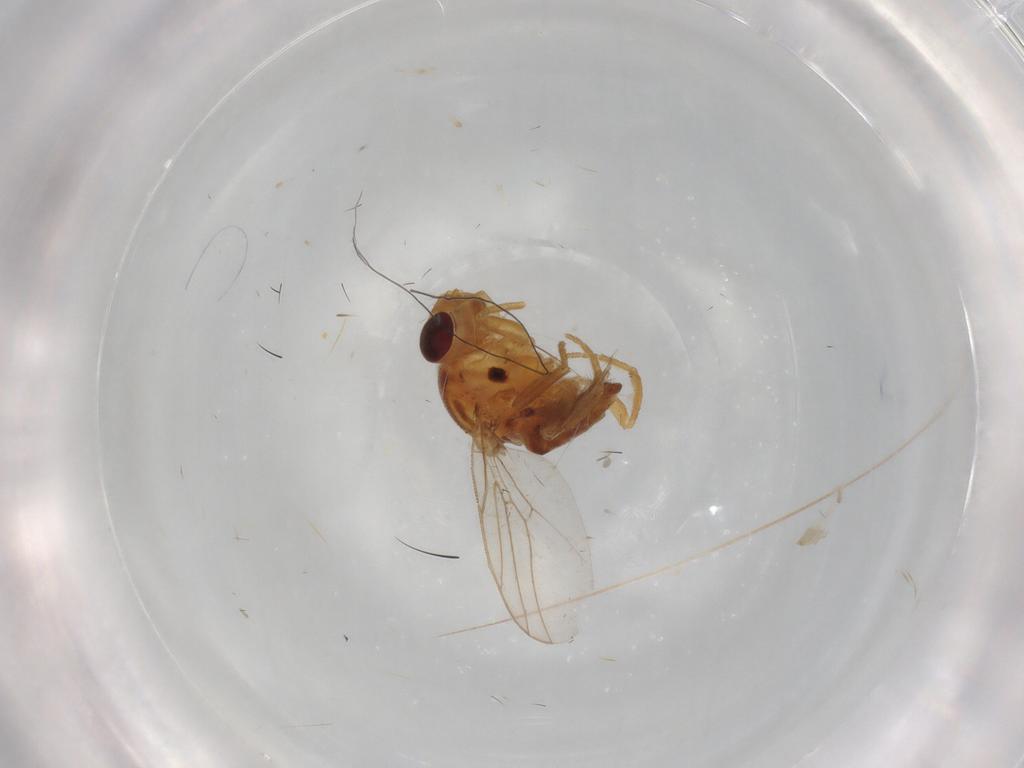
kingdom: Animalia
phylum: Arthropoda
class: Insecta
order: Diptera
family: Chloropidae
